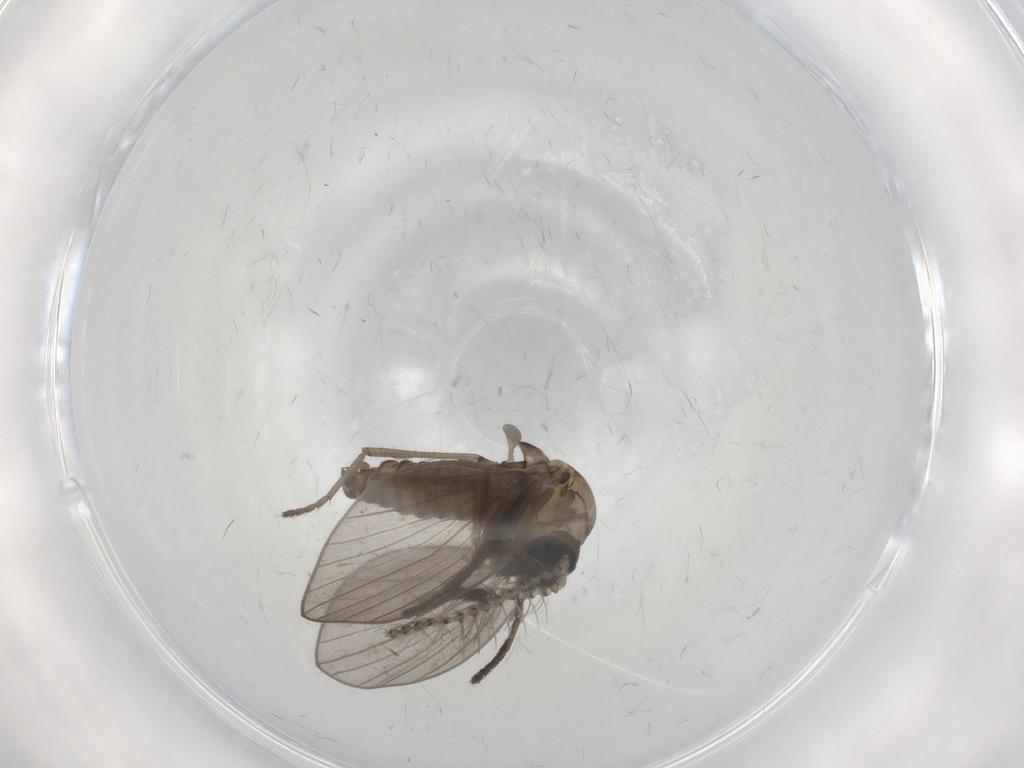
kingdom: Animalia
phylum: Arthropoda
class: Insecta
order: Diptera
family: Psychodidae
